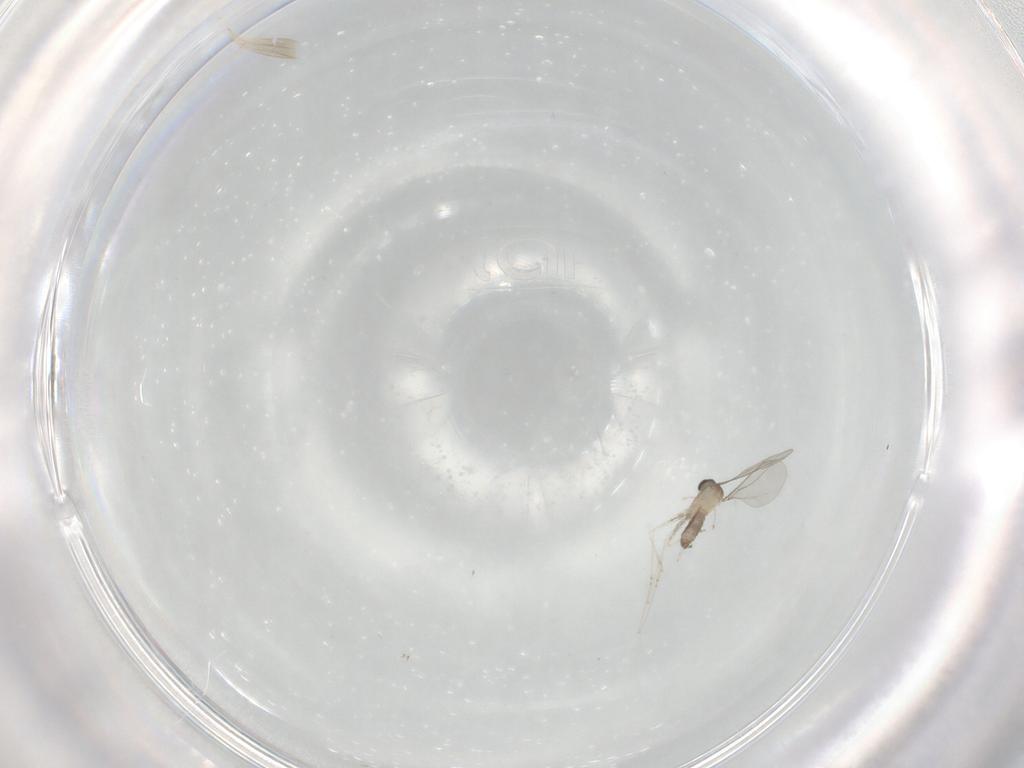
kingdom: Animalia
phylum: Arthropoda
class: Insecta
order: Diptera
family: Cecidomyiidae
